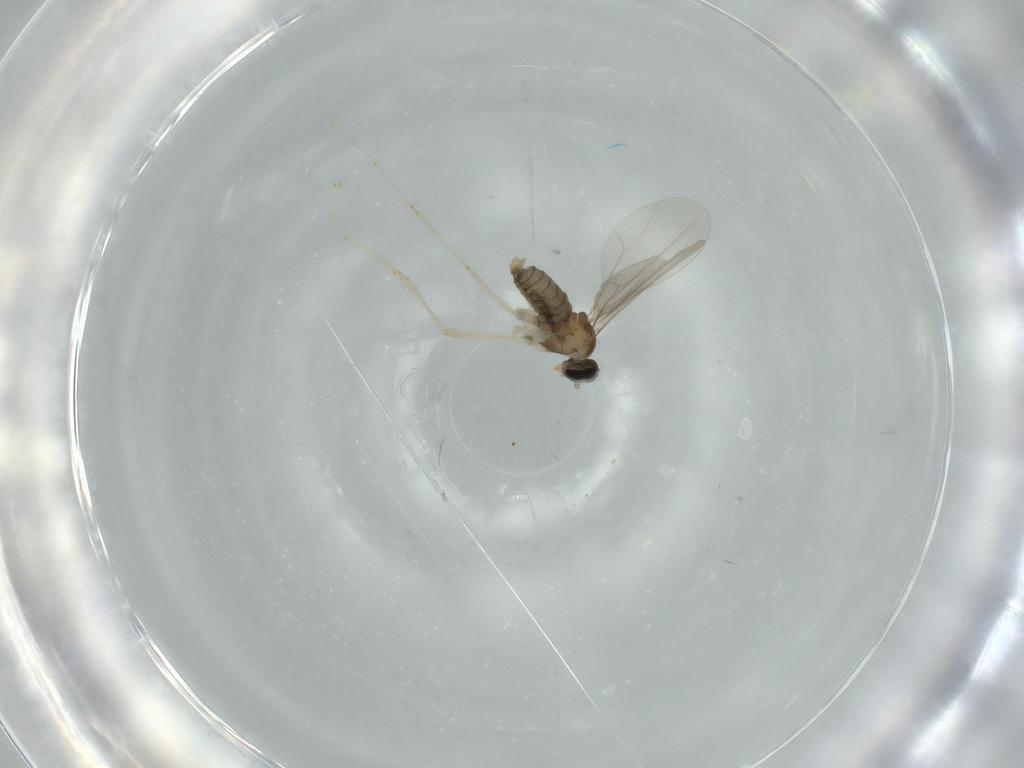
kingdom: Animalia
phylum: Arthropoda
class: Insecta
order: Diptera
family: Cecidomyiidae
